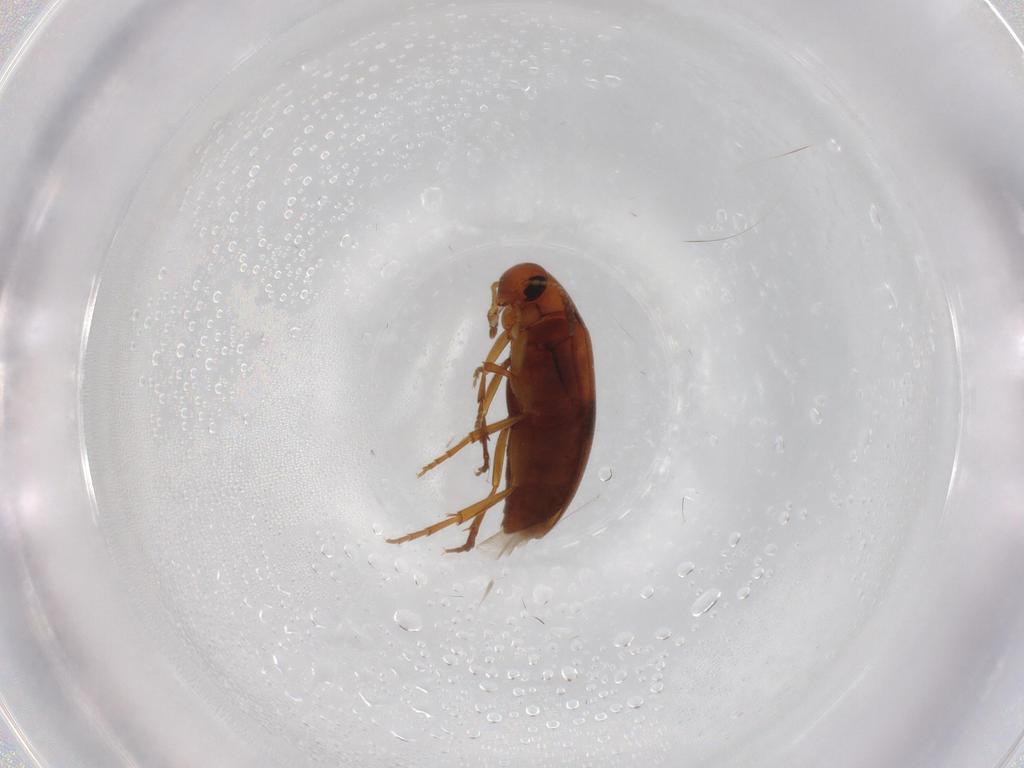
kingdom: Animalia
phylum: Arthropoda
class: Insecta
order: Coleoptera
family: Scraptiidae
